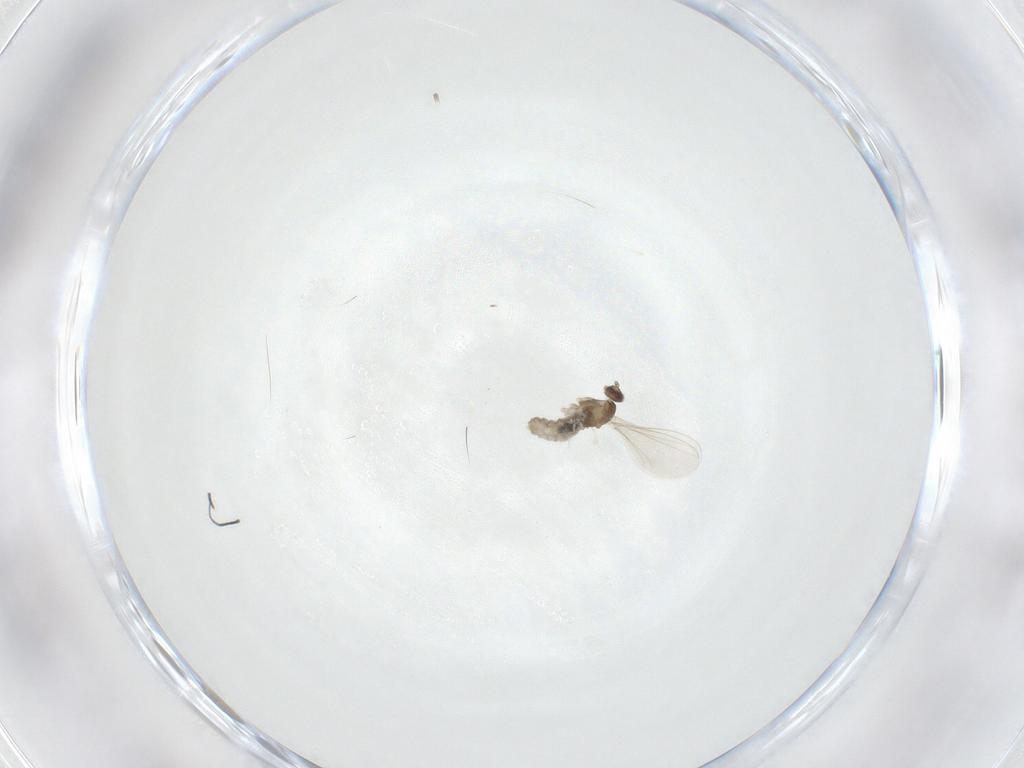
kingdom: Animalia
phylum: Arthropoda
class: Insecta
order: Diptera
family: Cecidomyiidae
